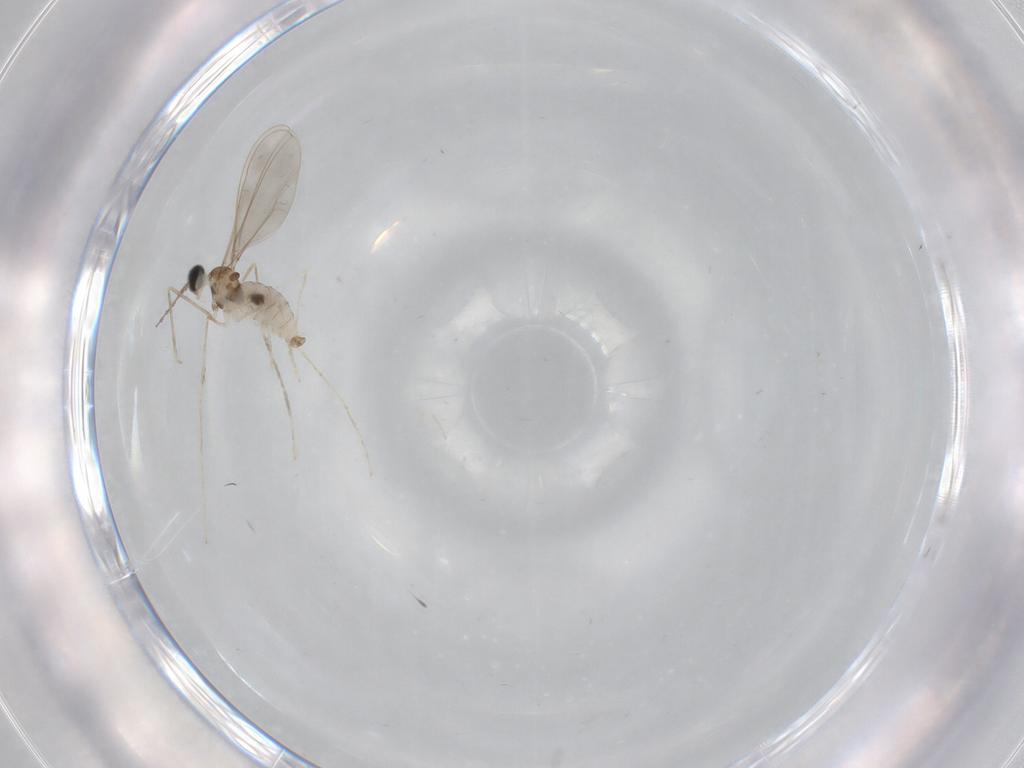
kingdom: Animalia
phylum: Arthropoda
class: Insecta
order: Diptera
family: Cecidomyiidae
